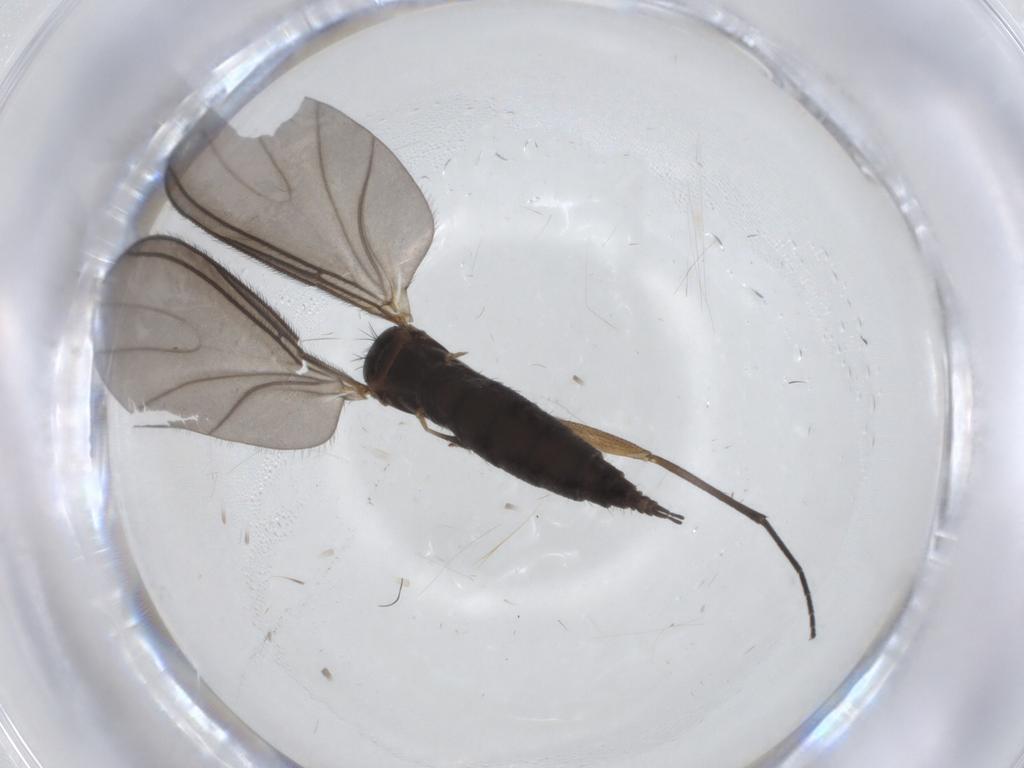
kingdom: Animalia
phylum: Arthropoda
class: Insecta
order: Diptera
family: Sciaridae
